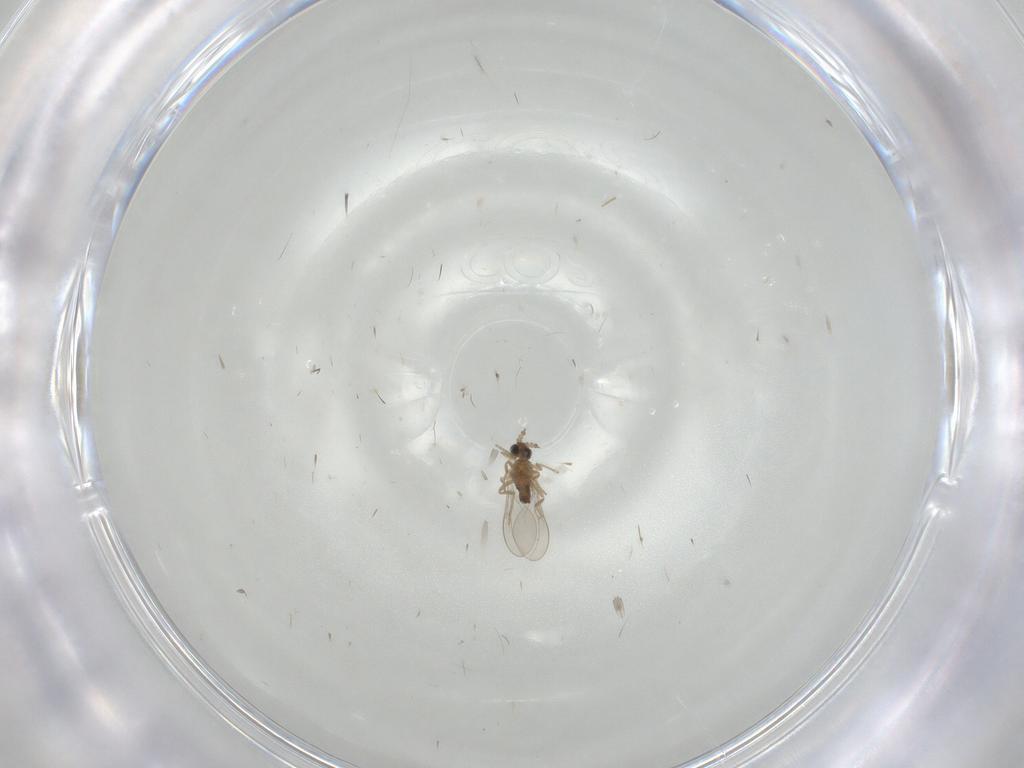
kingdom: Animalia
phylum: Arthropoda
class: Insecta
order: Diptera
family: Cecidomyiidae
